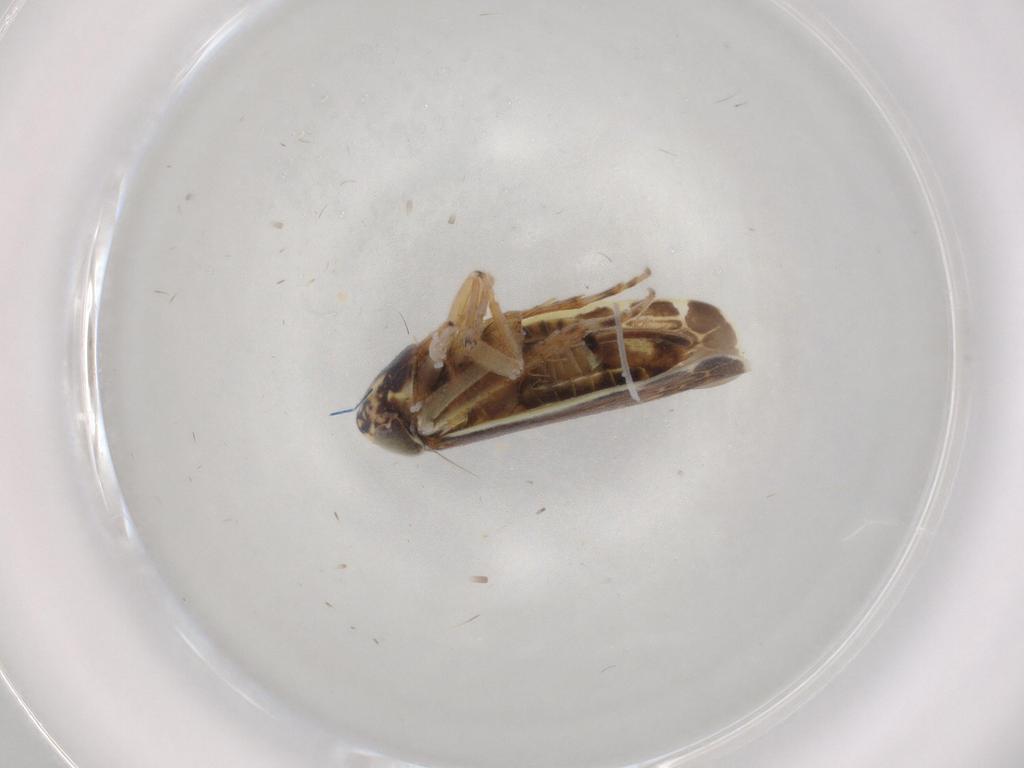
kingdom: Animalia
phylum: Arthropoda
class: Insecta
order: Hemiptera
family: Cicadellidae
